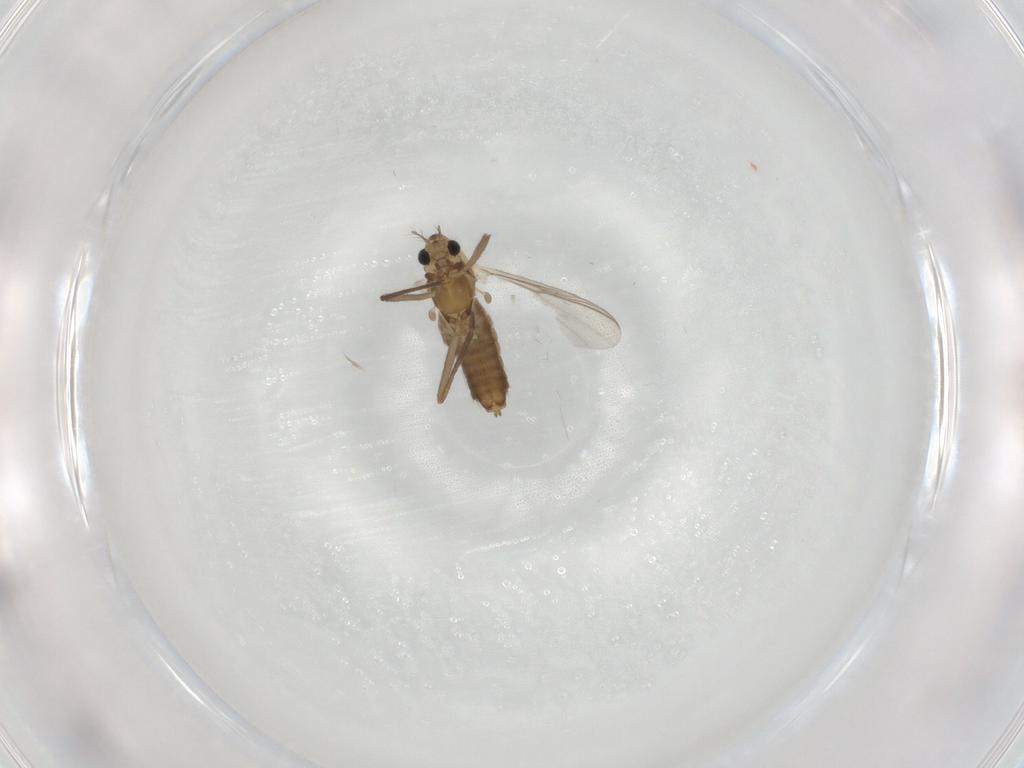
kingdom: Animalia
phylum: Arthropoda
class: Insecta
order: Diptera
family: Chironomidae
